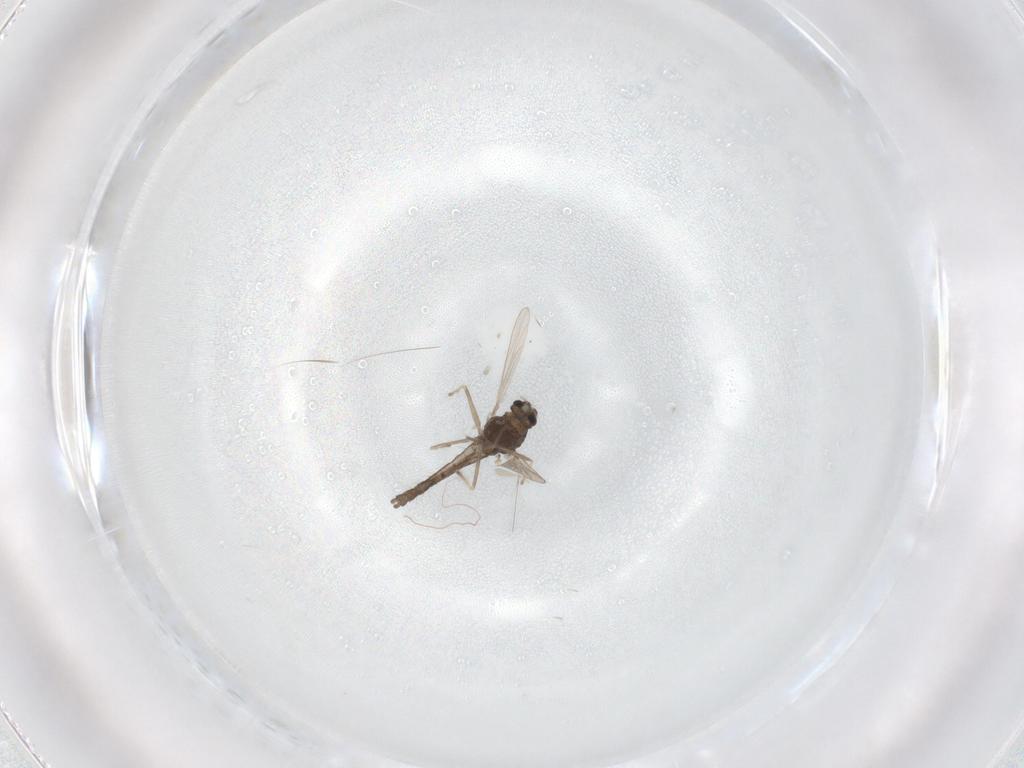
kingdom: Animalia
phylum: Arthropoda
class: Insecta
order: Diptera
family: Chironomidae
